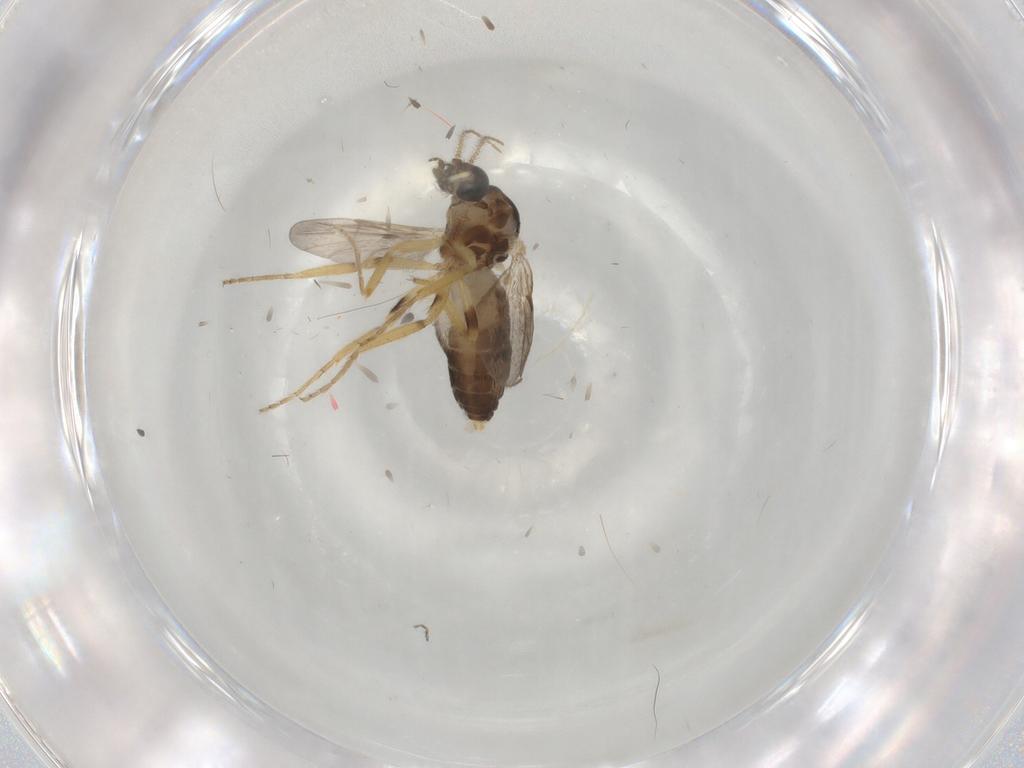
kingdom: Animalia
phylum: Arthropoda
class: Insecta
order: Diptera
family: Ceratopogonidae
